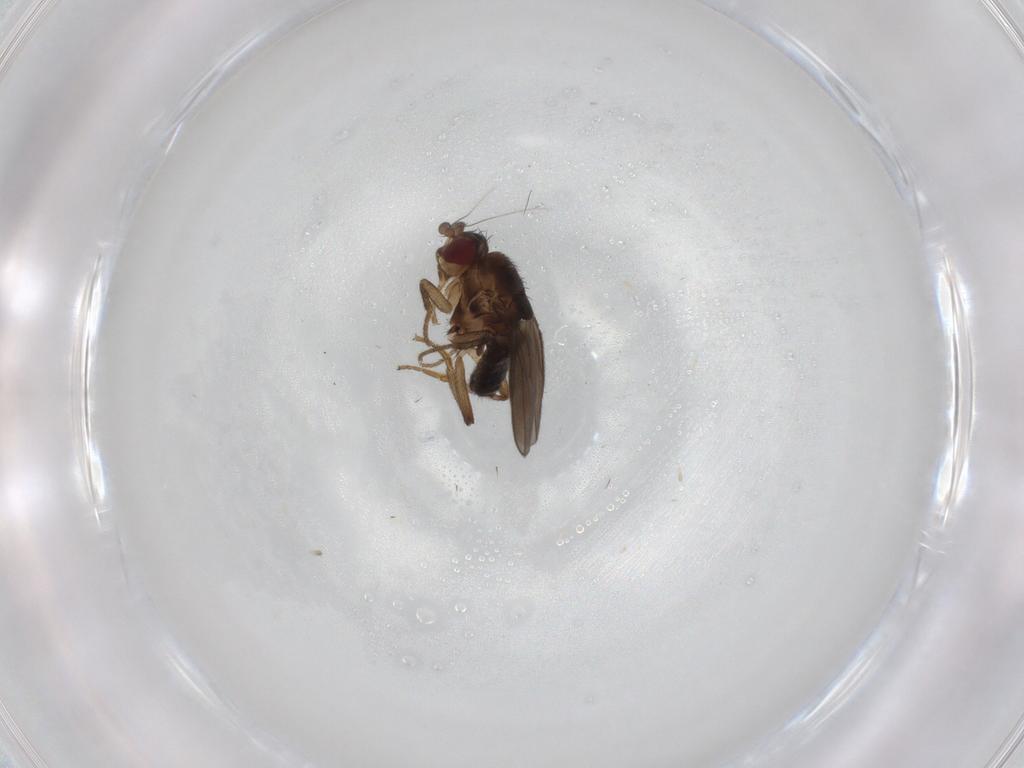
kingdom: Animalia
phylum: Arthropoda
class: Insecta
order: Diptera
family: Sphaeroceridae
